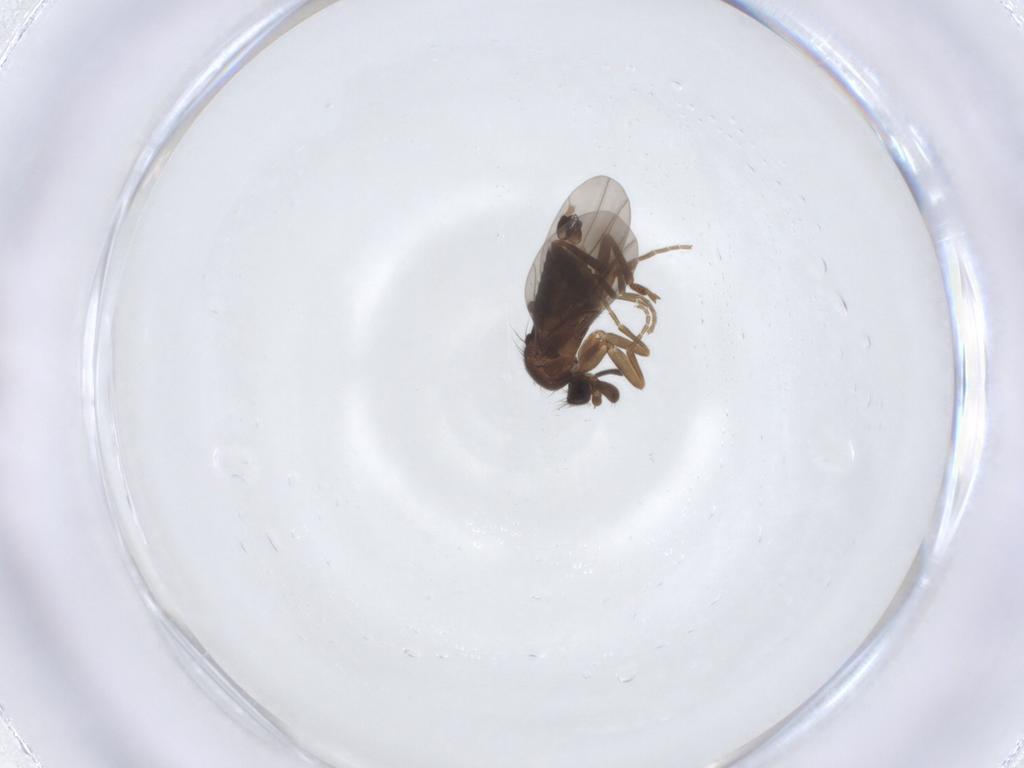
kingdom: Animalia
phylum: Arthropoda
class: Insecta
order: Diptera
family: Phoridae
